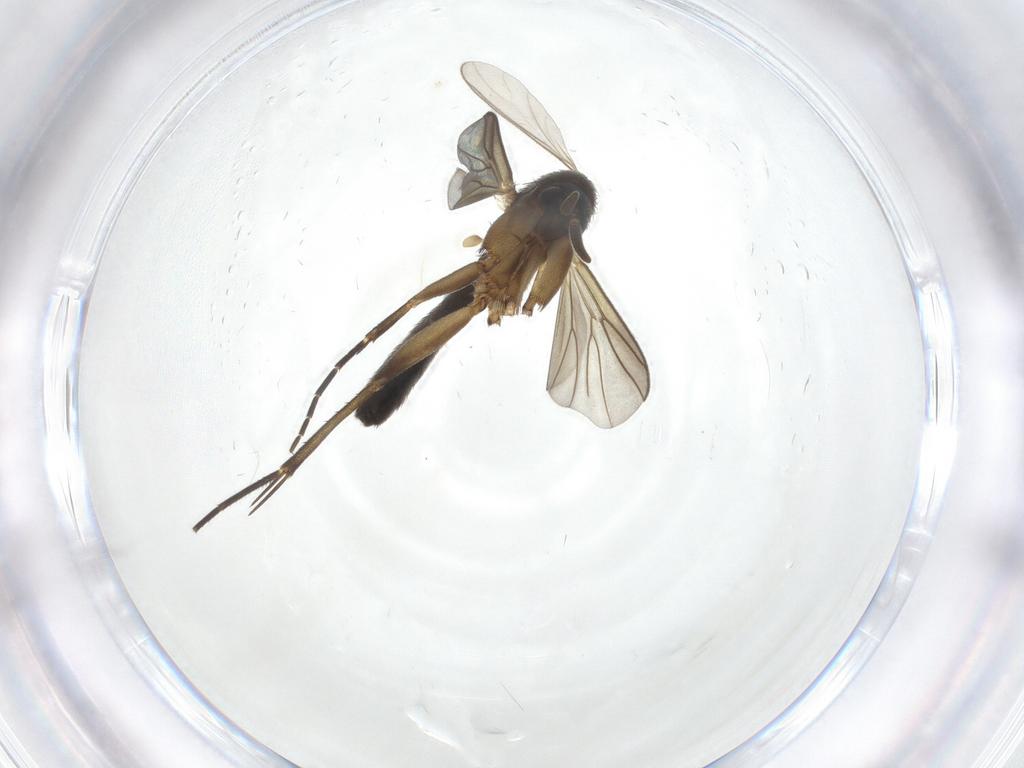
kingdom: Animalia
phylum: Arthropoda
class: Insecta
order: Diptera
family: Mycetophilidae
